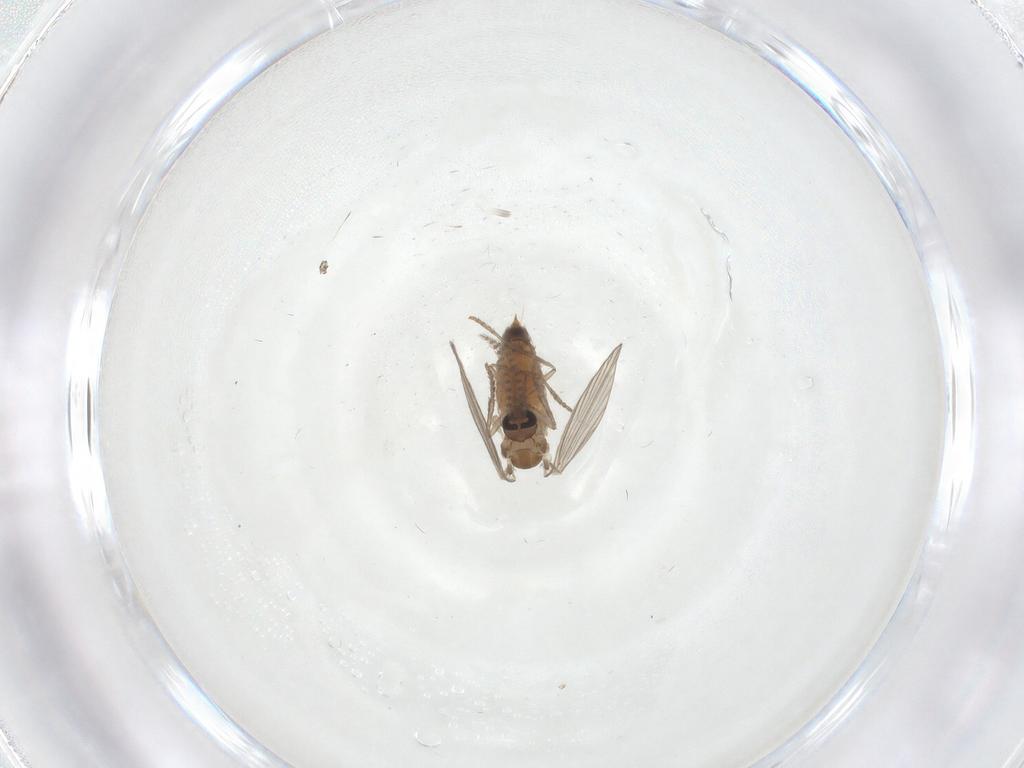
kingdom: Animalia
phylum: Arthropoda
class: Insecta
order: Diptera
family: Psychodidae
